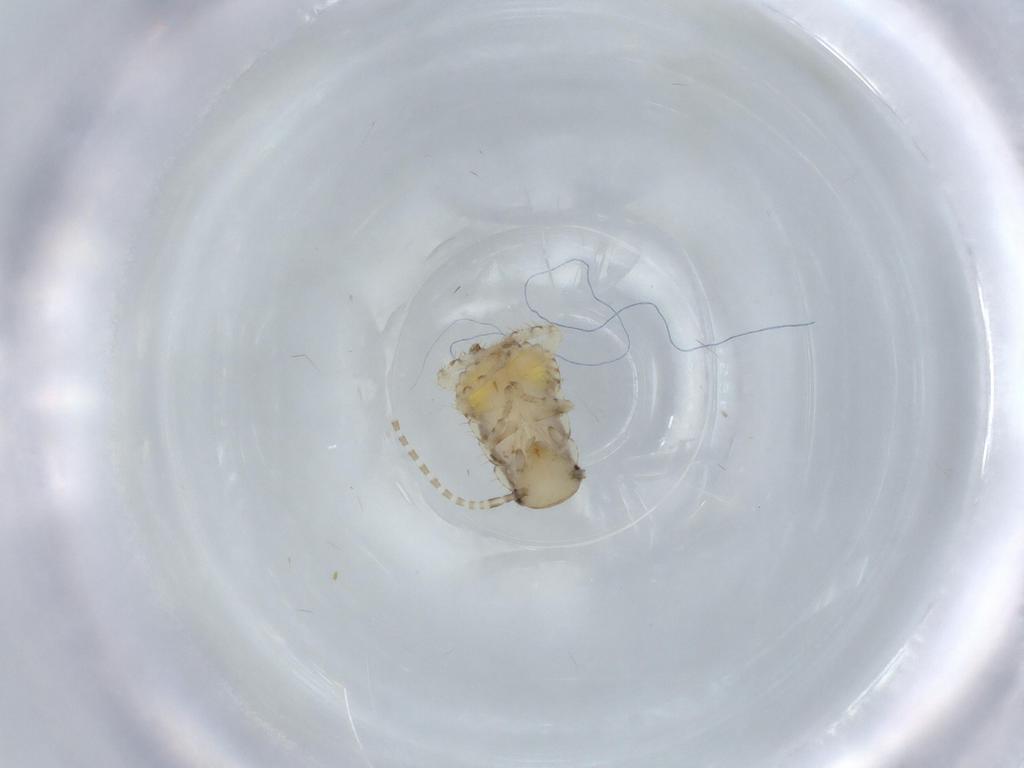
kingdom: Animalia
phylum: Arthropoda
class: Insecta
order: Blattodea
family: Ectobiidae
